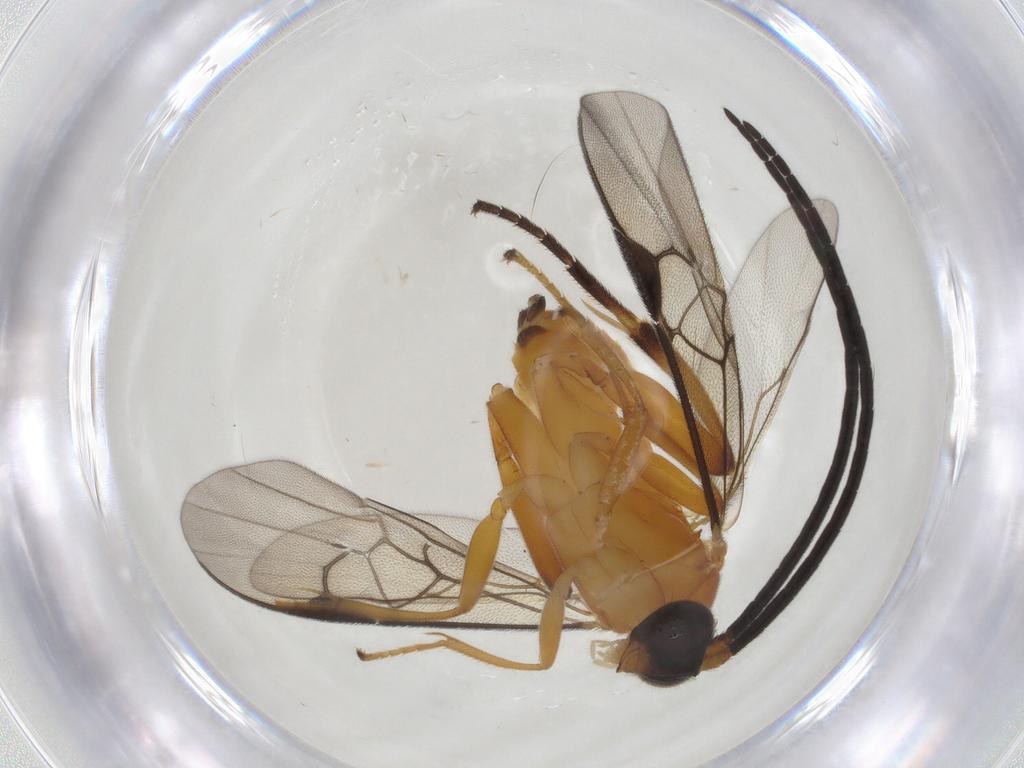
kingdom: Animalia
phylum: Arthropoda
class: Insecta
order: Hymenoptera
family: Braconidae
